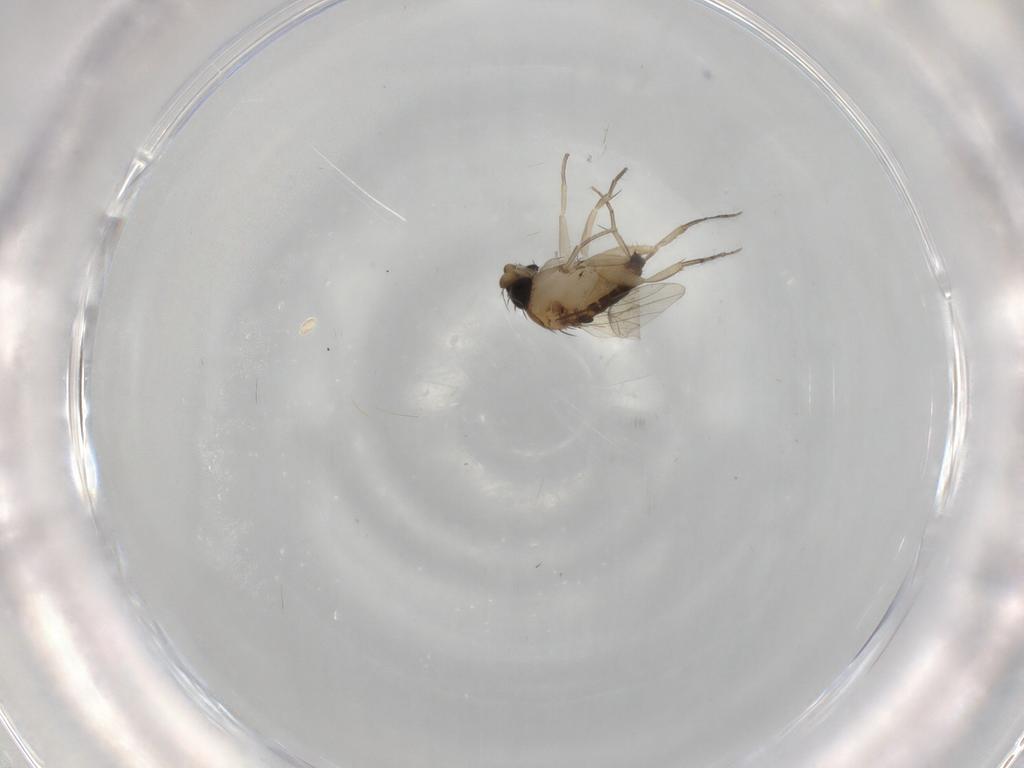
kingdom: Animalia
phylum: Arthropoda
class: Insecta
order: Diptera
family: Phoridae
